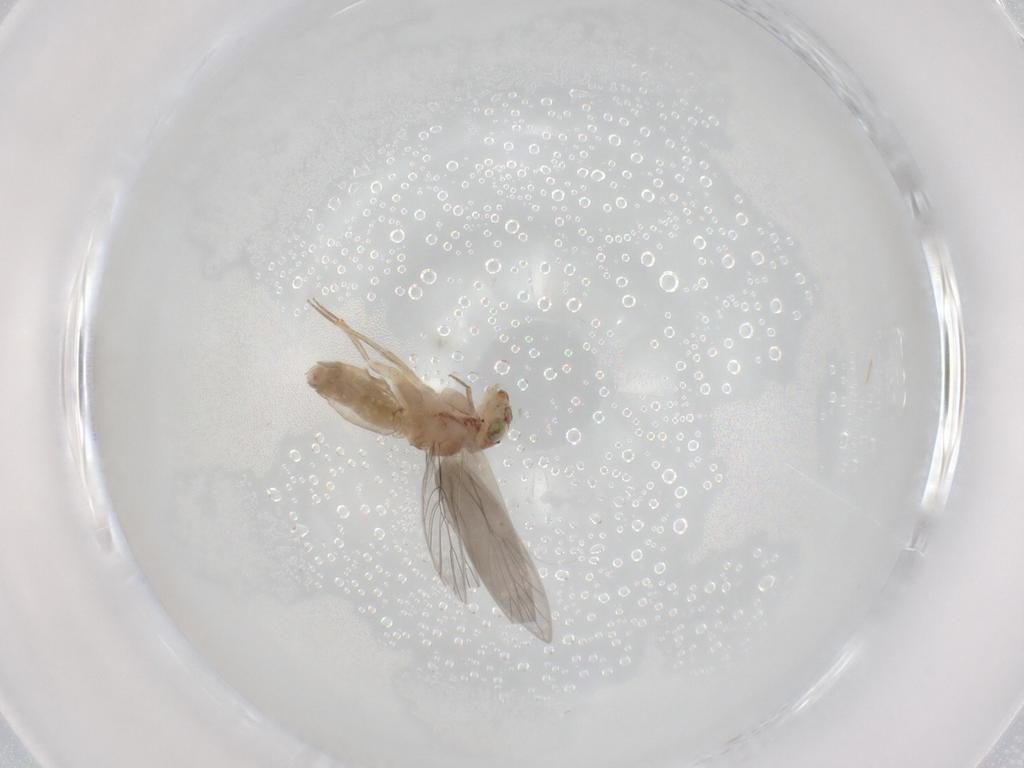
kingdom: Animalia
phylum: Arthropoda
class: Insecta
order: Psocodea
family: Lepidopsocidae
